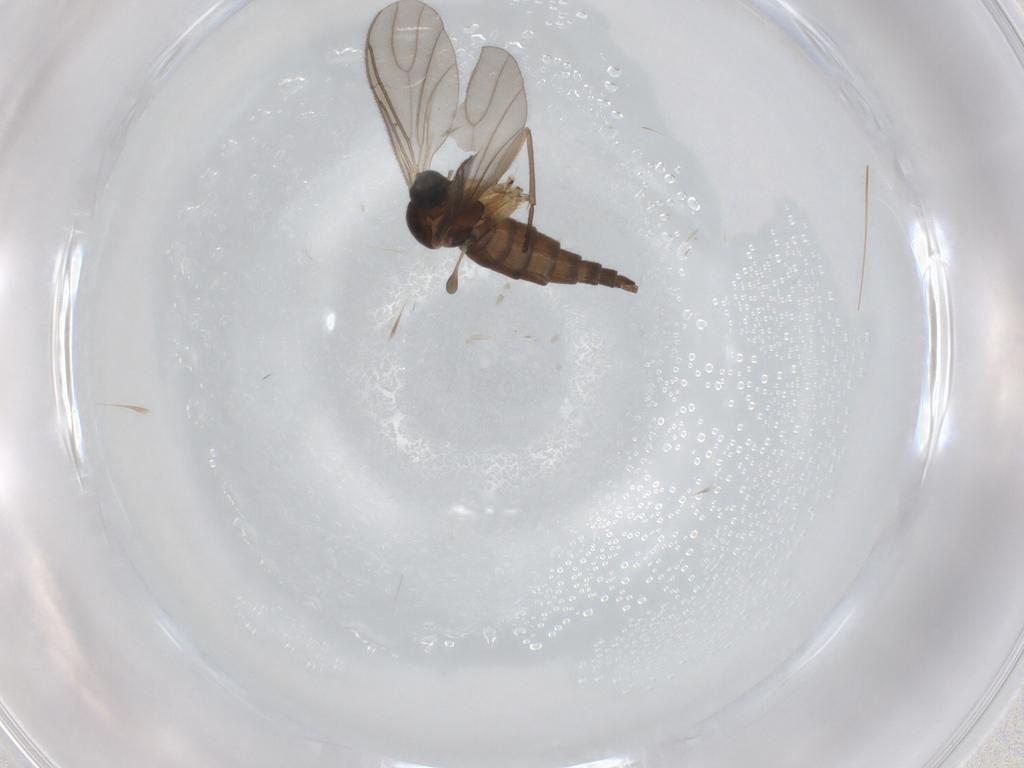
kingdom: Animalia
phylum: Arthropoda
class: Insecta
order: Diptera
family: Sciaridae
